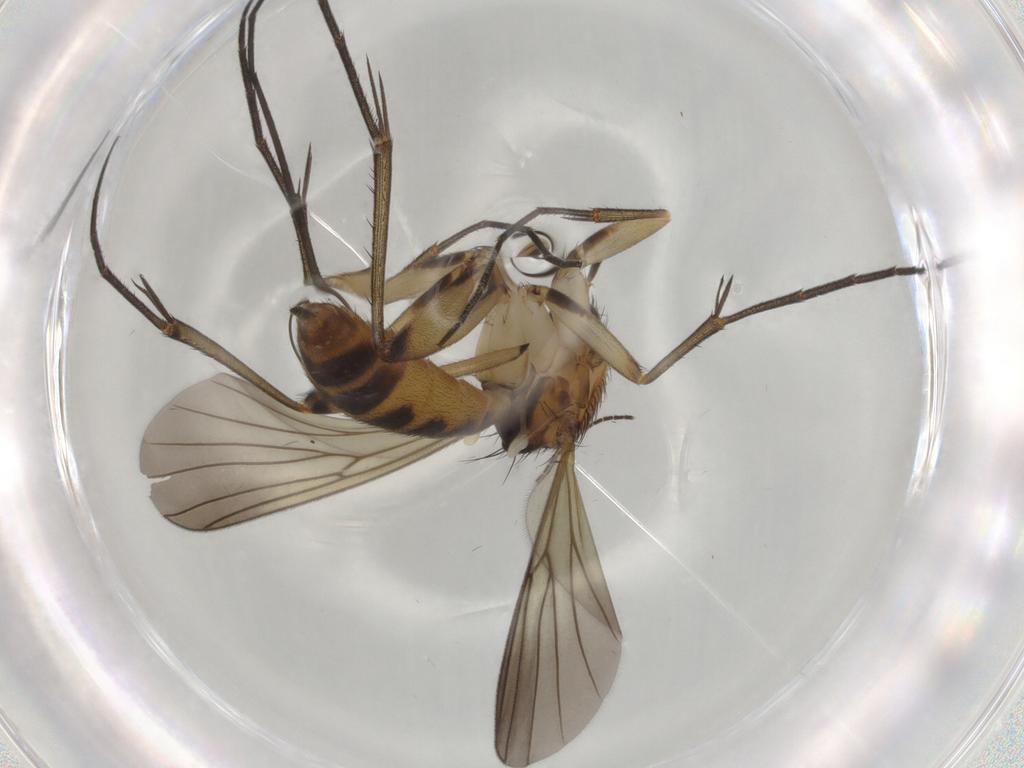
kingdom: Animalia
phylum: Arthropoda
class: Insecta
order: Diptera
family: Mycetophilidae
